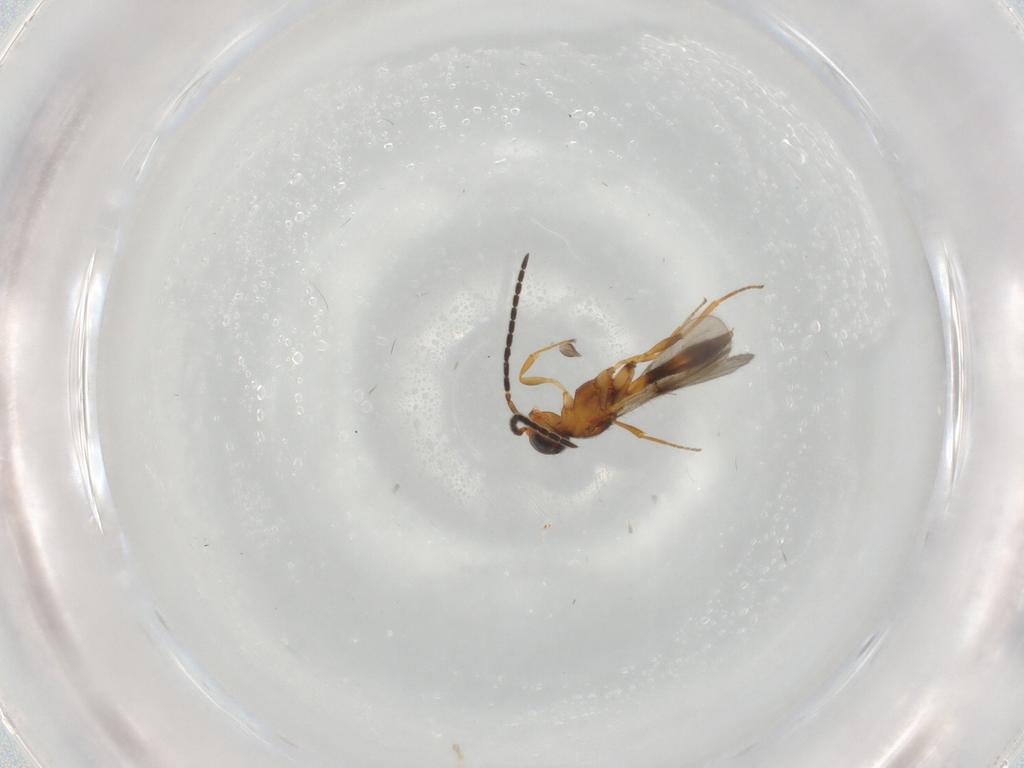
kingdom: Animalia
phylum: Arthropoda
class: Insecta
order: Hymenoptera
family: Scelionidae
